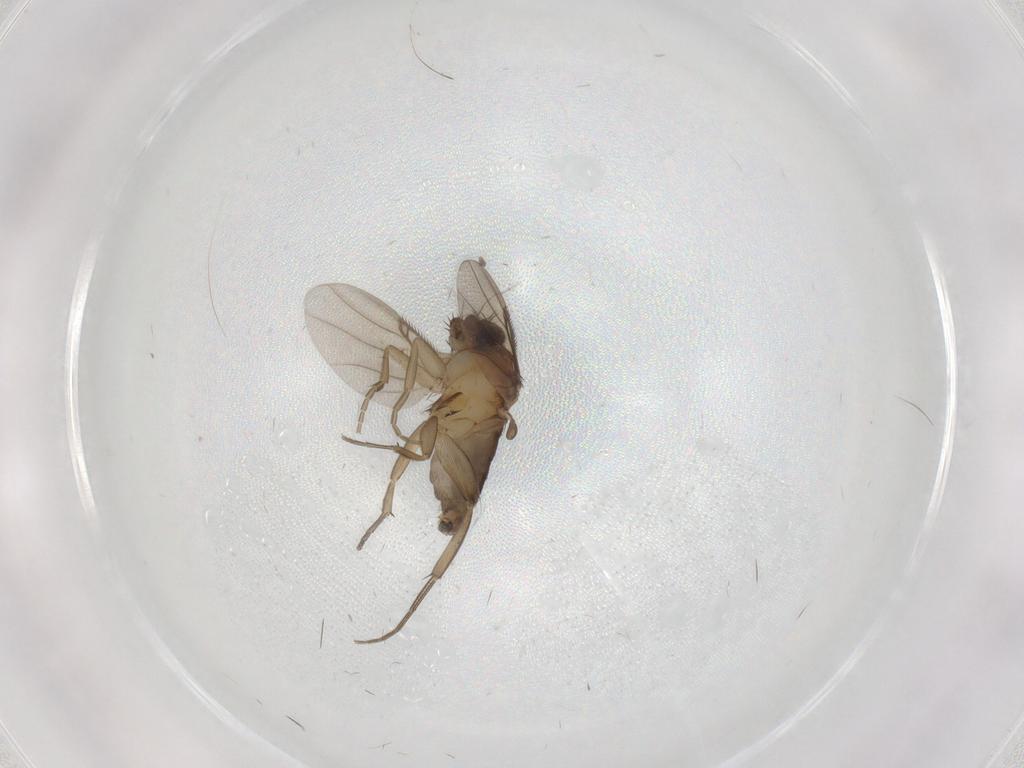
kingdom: Animalia
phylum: Arthropoda
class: Insecta
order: Diptera
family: Phoridae
